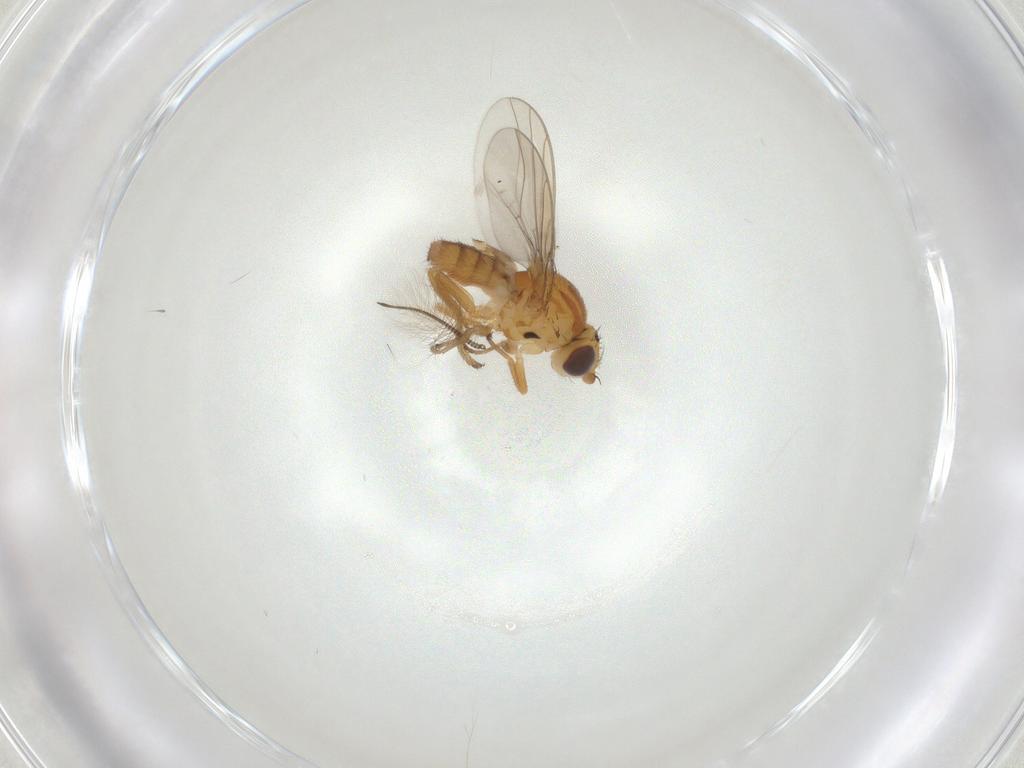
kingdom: Animalia
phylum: Arthropoda
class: Insecta
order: Diptera
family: Chloropidae
